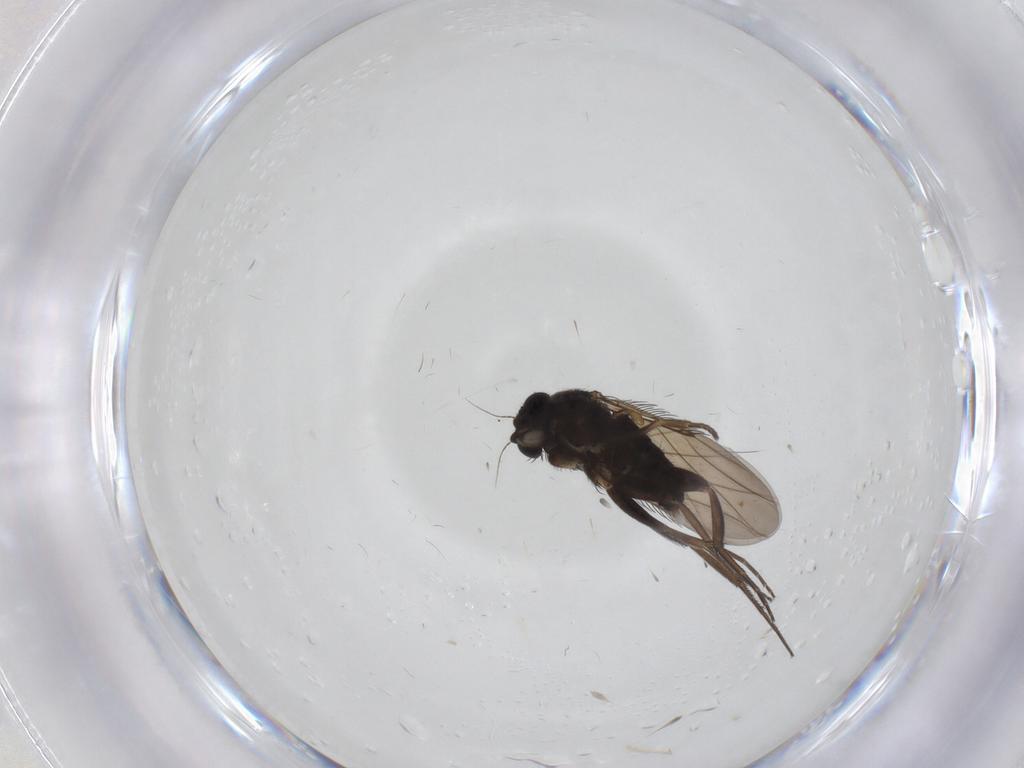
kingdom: Animalia
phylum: Arthropoda
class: Insecta
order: Diptera
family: Phoridae
